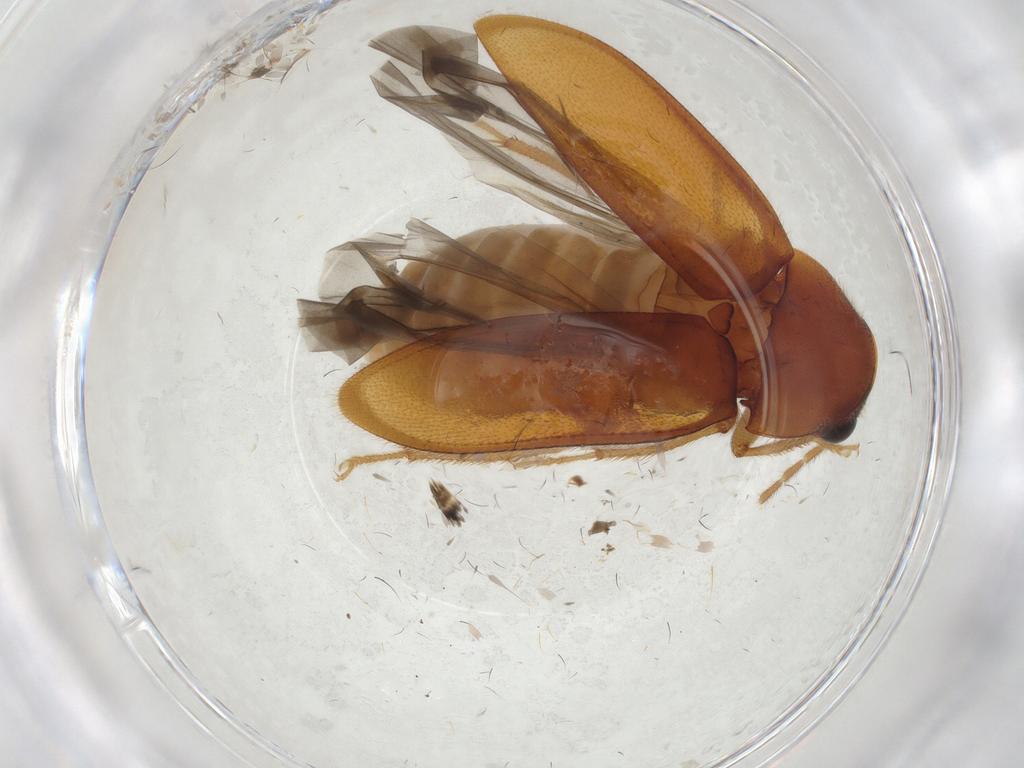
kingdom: Animalia
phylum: Arthropoda
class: Insecta
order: Coleoptera
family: Ptilodactylidae
